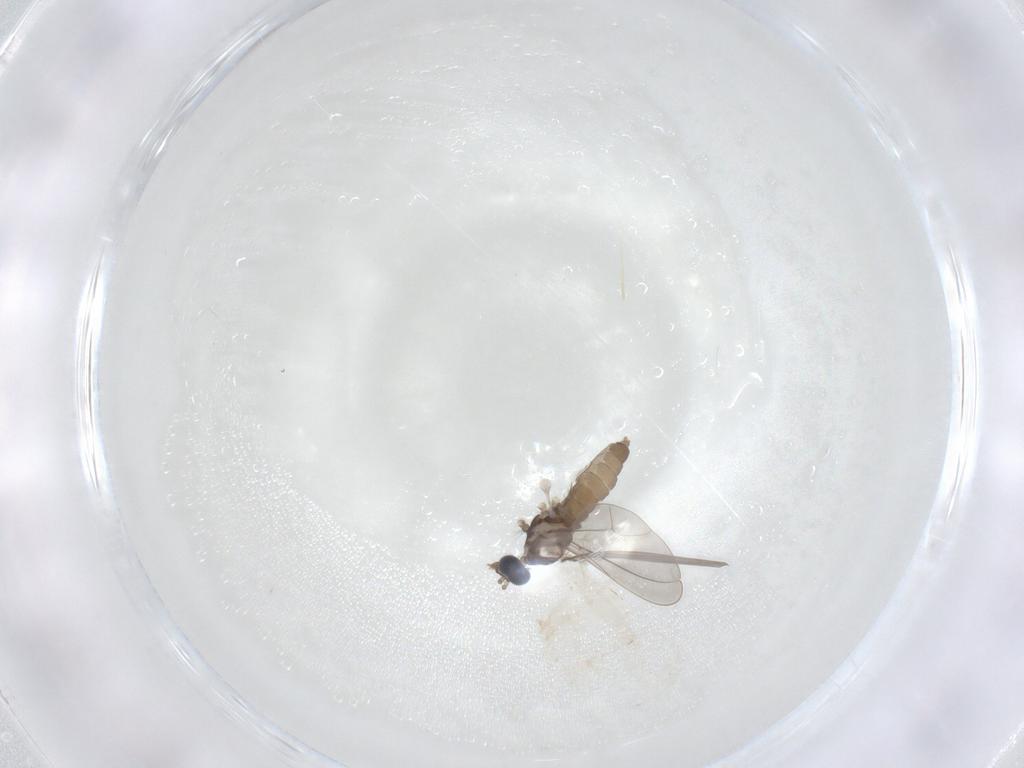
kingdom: Animalia
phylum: Arthropoda
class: Insecta
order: Diptera
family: Cecidomyiidae
